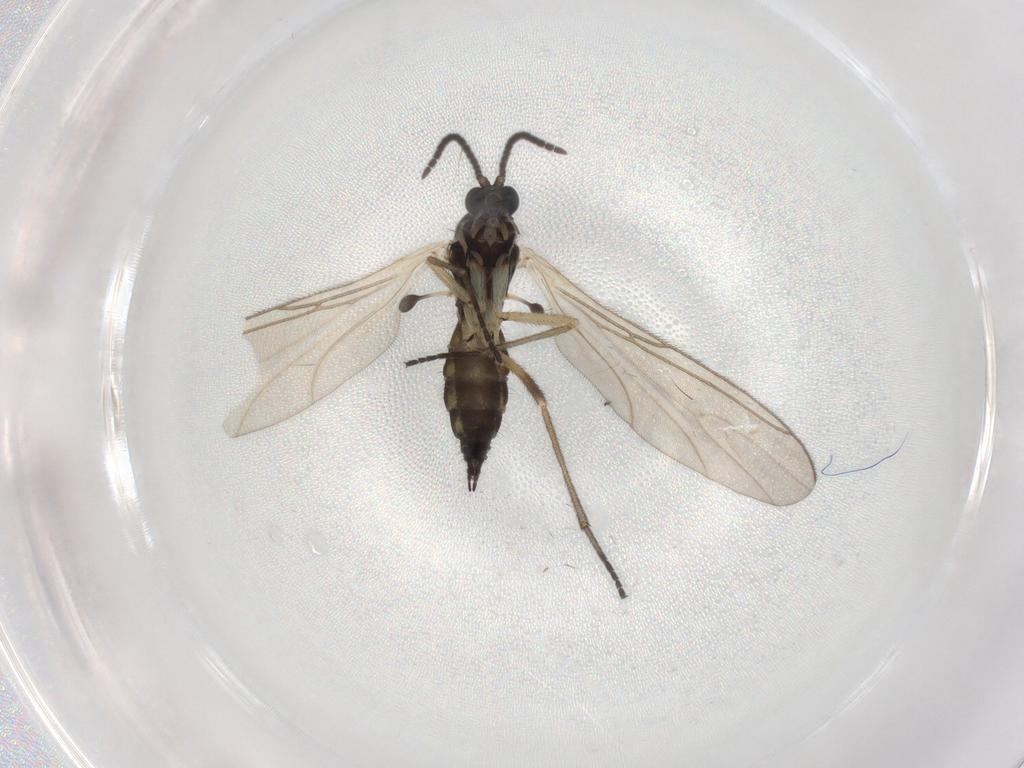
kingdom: Animalia
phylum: Arthropoda
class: Insecta
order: Diptera
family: Sciaridae
